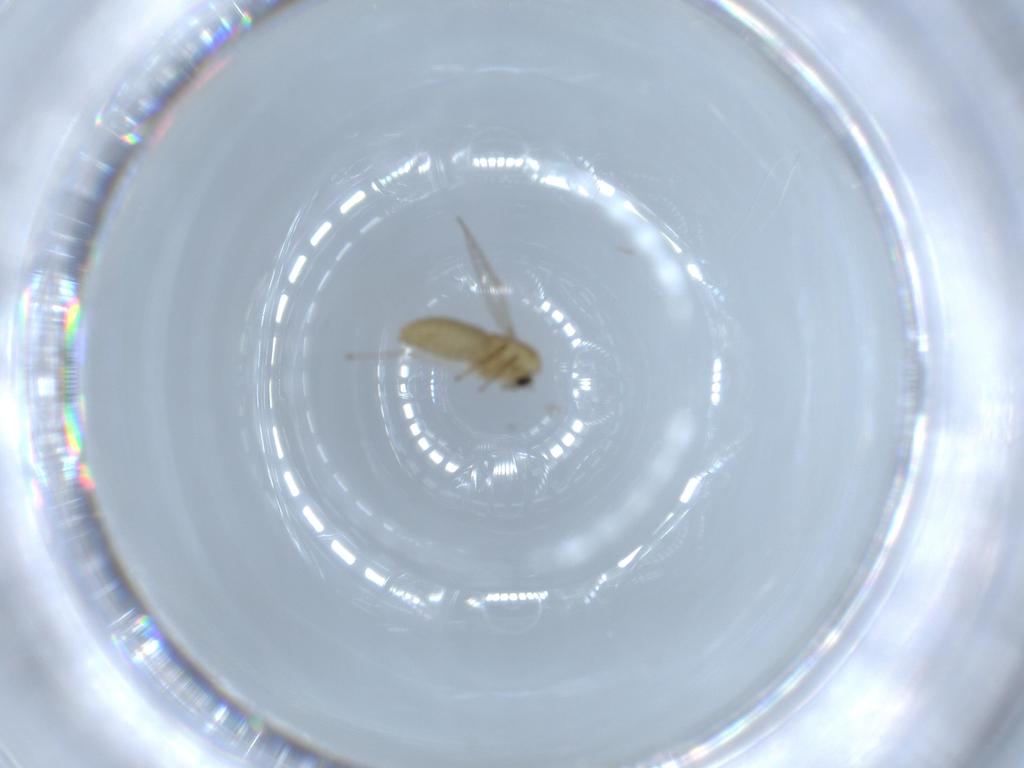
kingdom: Animalia
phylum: Arthropoda
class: Insecta
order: Diptera
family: Chironomidae
